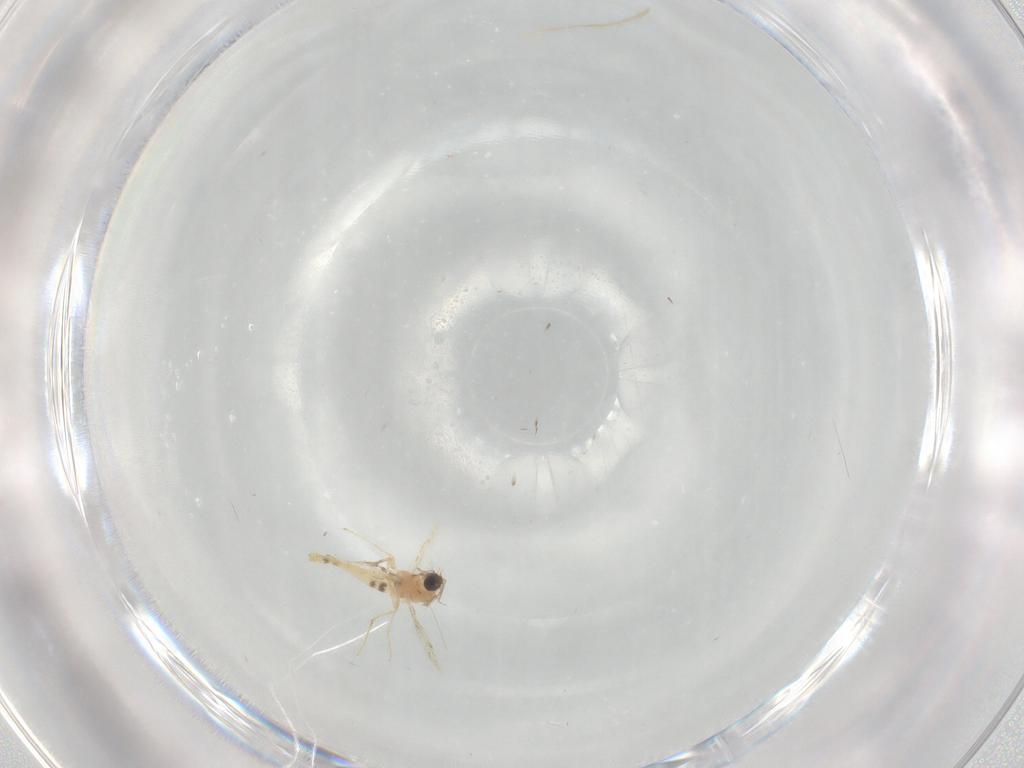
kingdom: Animalia
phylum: Arthropoda
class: Insecta
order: Diptera
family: Chironomidae
